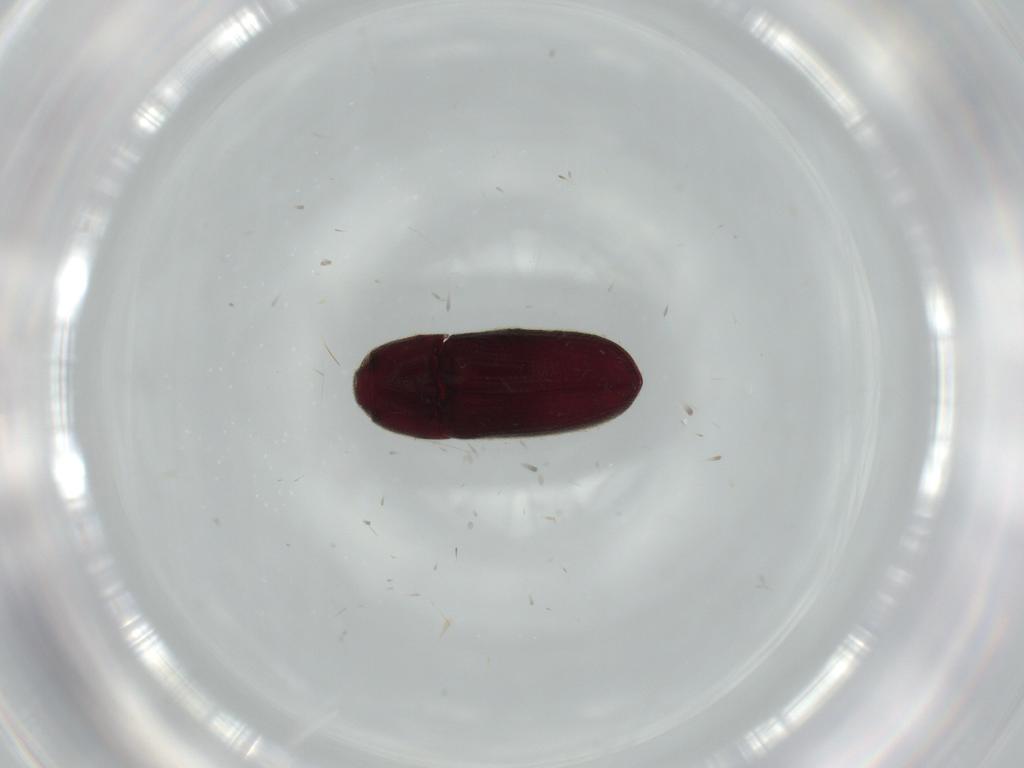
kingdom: Animalia
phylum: Arthropoda
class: Insecta
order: Coleoptera
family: Throscidae
